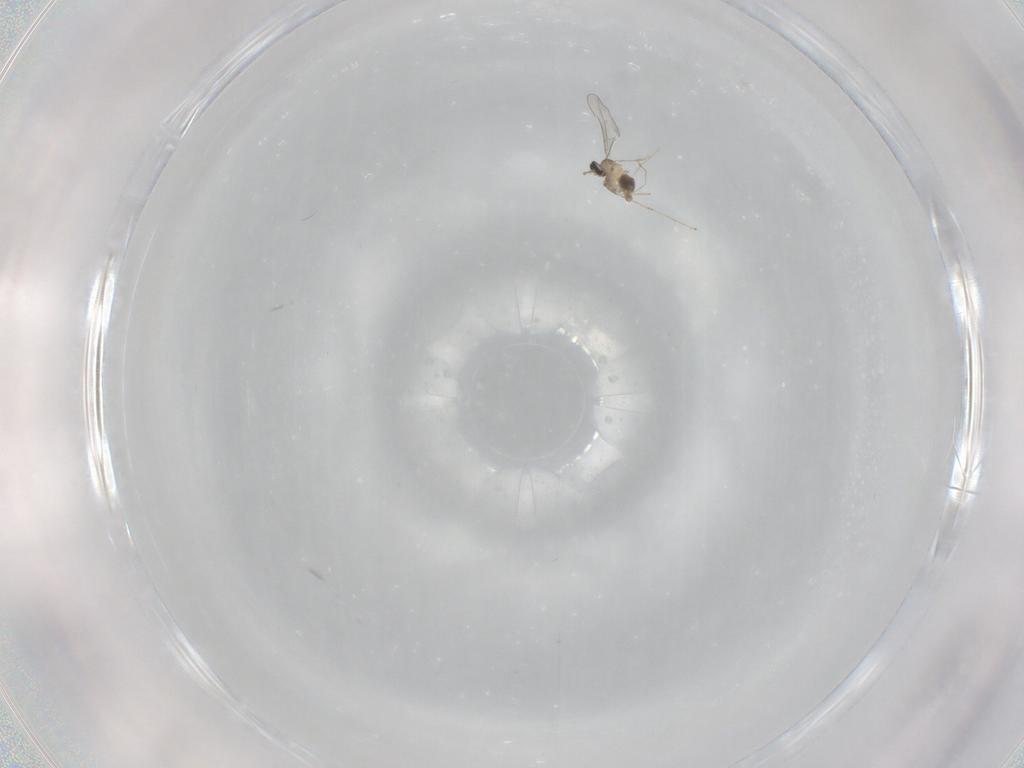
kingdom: Animalia
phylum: Arthropoda
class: Insecta
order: Diptera
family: Cecidomyiidae
